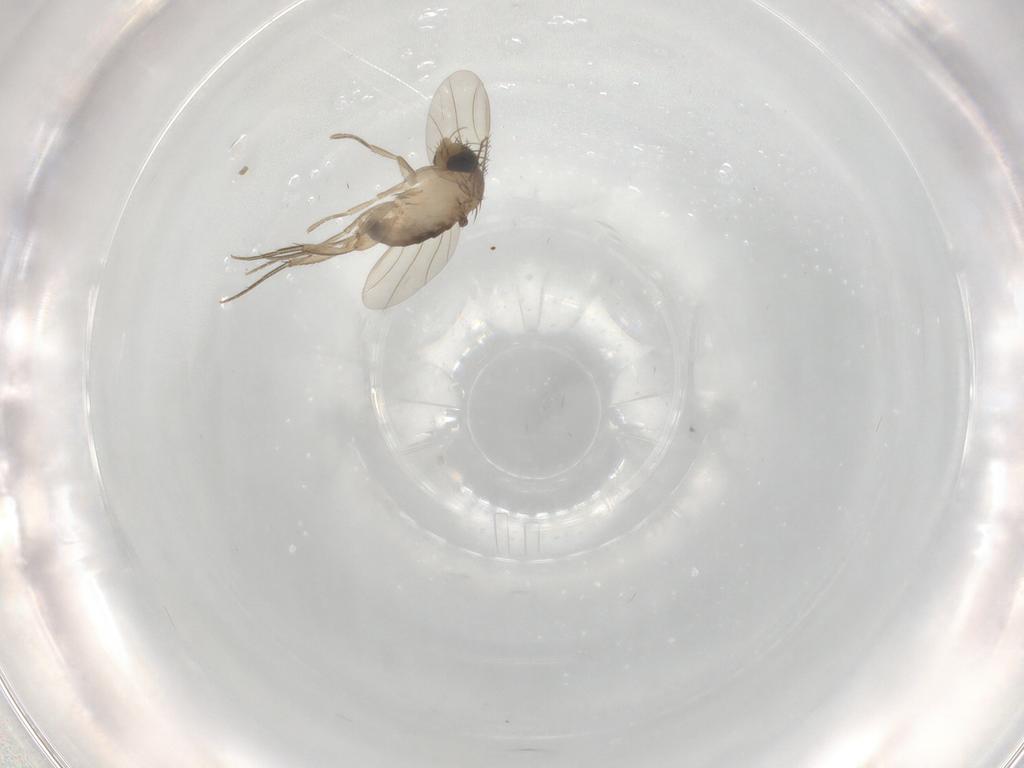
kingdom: Animalia
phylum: Arthropoda
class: Insecta
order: Diptera
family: Phoridae
